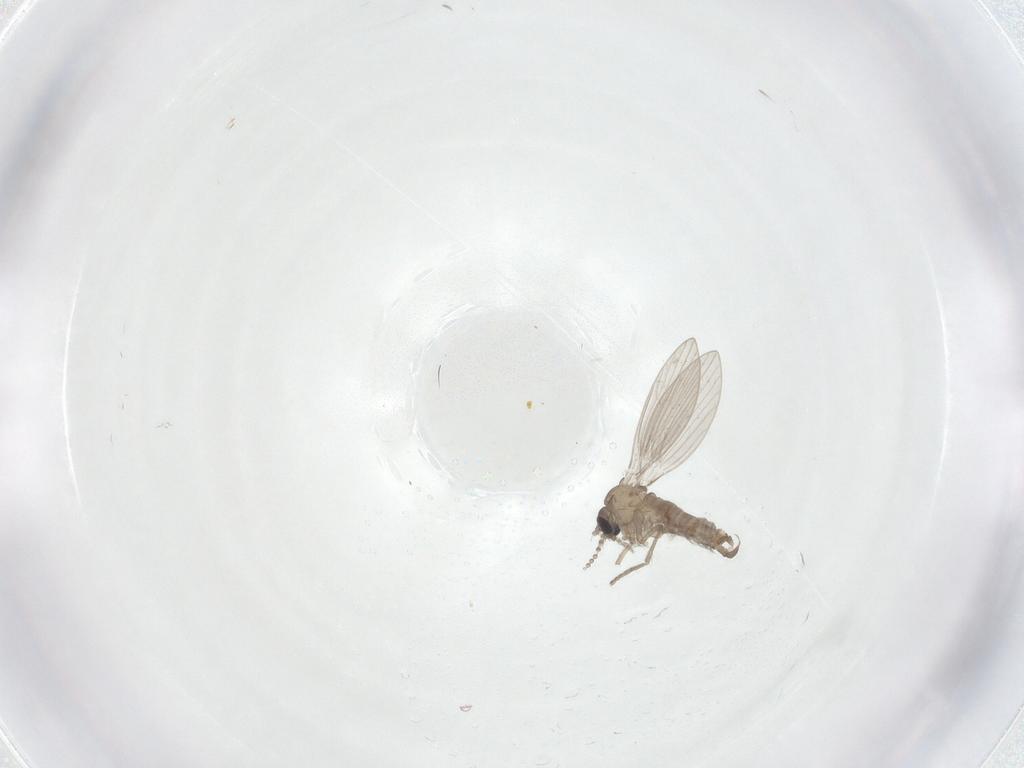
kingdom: Animalia
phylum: Arthropoda
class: Insecta
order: Diptera
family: Psychodidae
